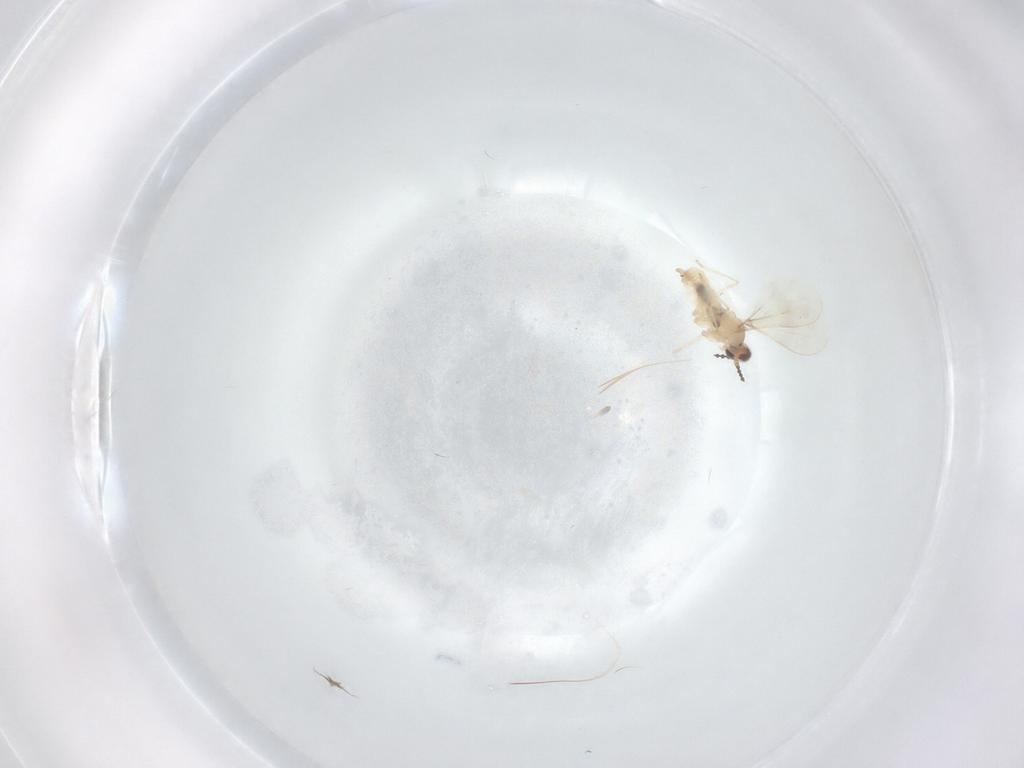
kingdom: Animalia
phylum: Arthropoda
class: Insecta
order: Diptera
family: Cecidomyiidae
